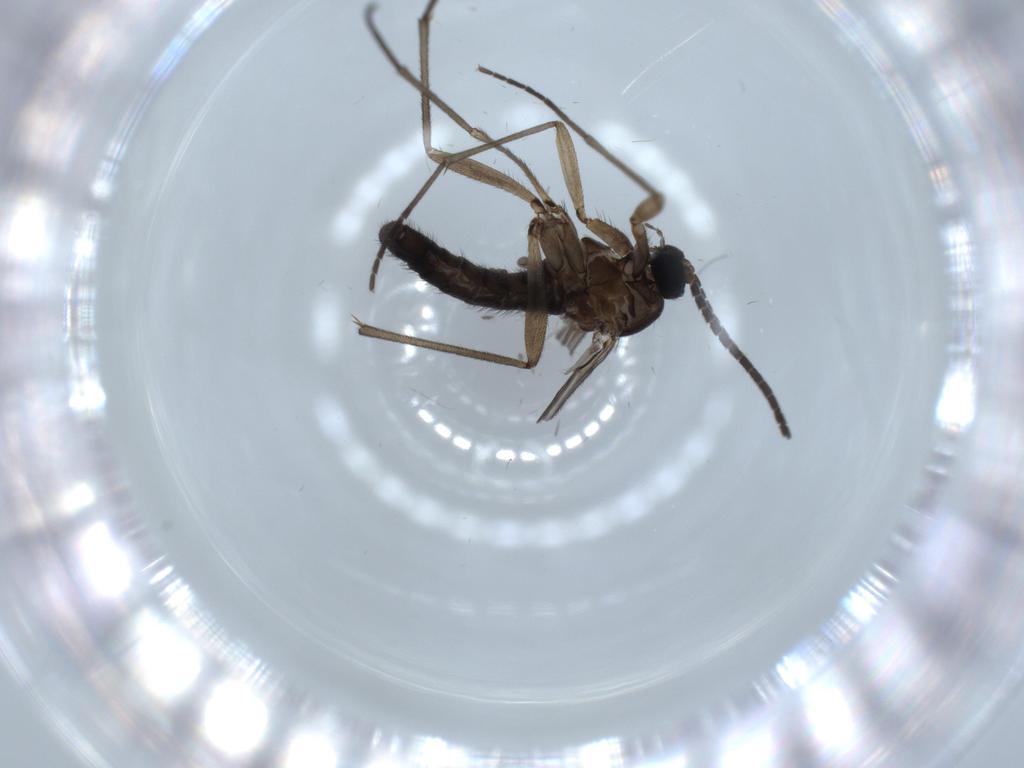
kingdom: Animalia
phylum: Arthropoda
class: Insecta
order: Diptera
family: Sciaridae
